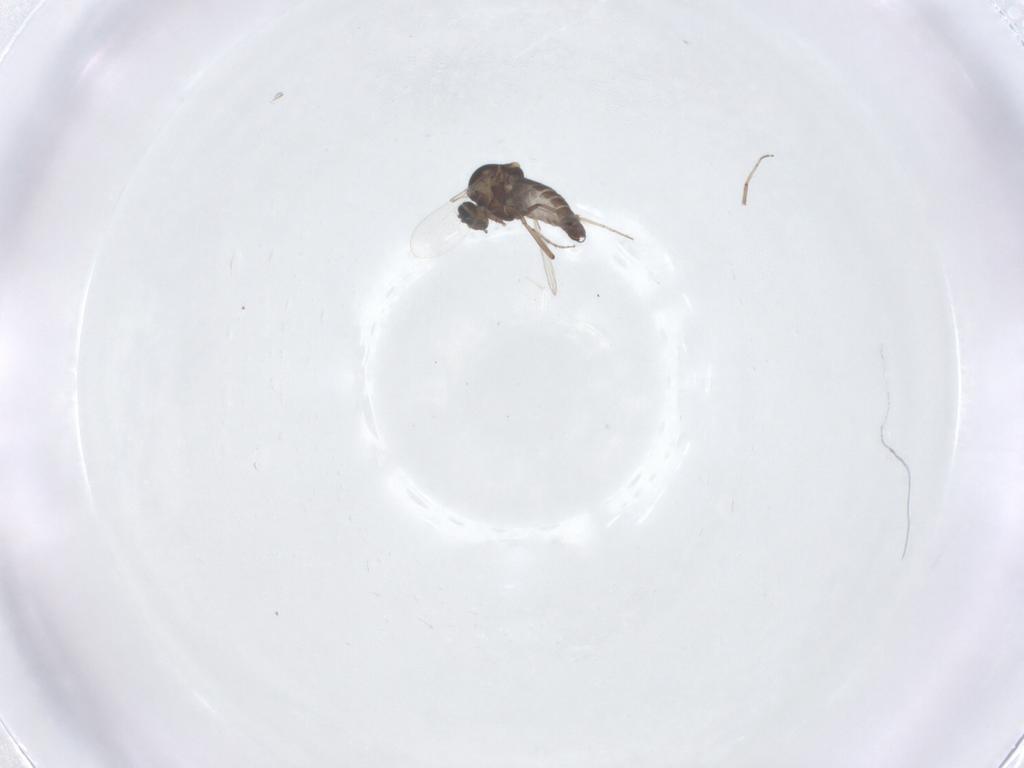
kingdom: Animalia
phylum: Arthropoda
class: Insecta
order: Diptera
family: Ceratopogonidae
